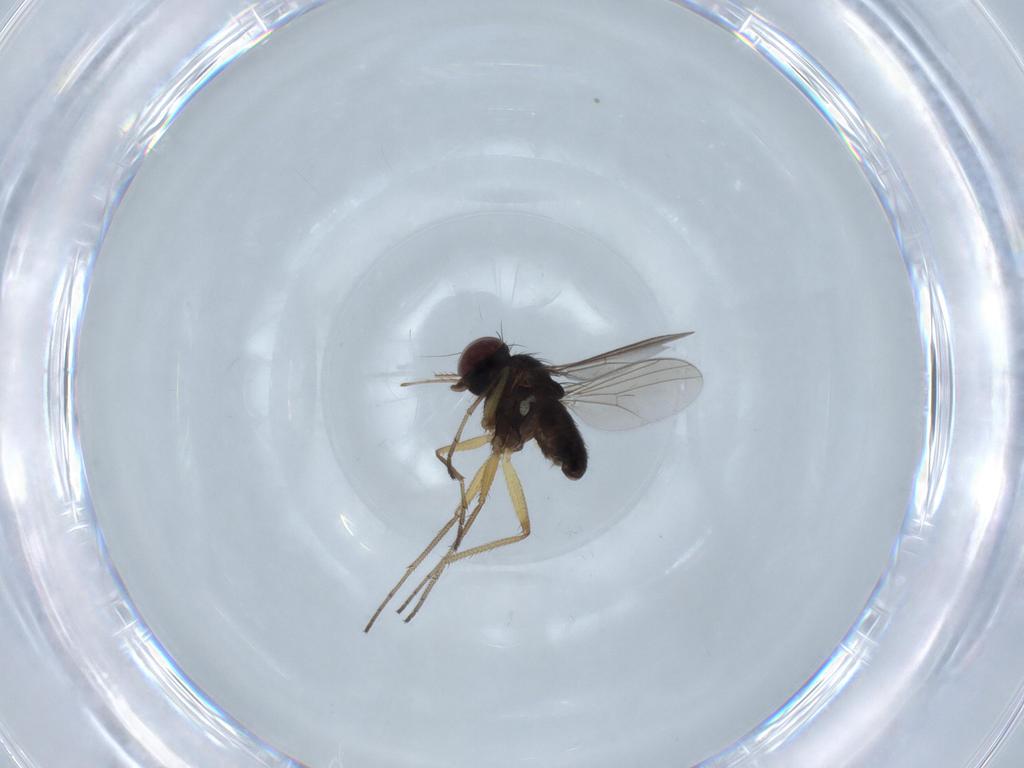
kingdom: Animalia
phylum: Arthropoda
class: Insecta
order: Diptera
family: Dolichopodidae
